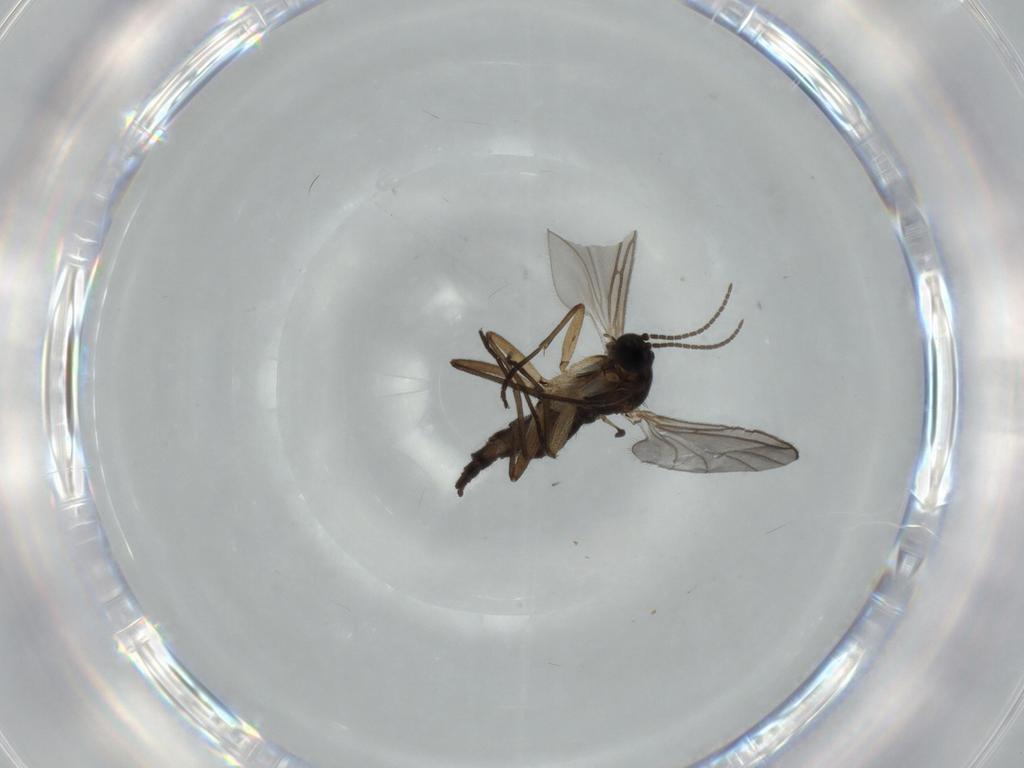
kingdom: Animalia
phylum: Arthropoda
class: Insecta
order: Diptera
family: Sciaridae
